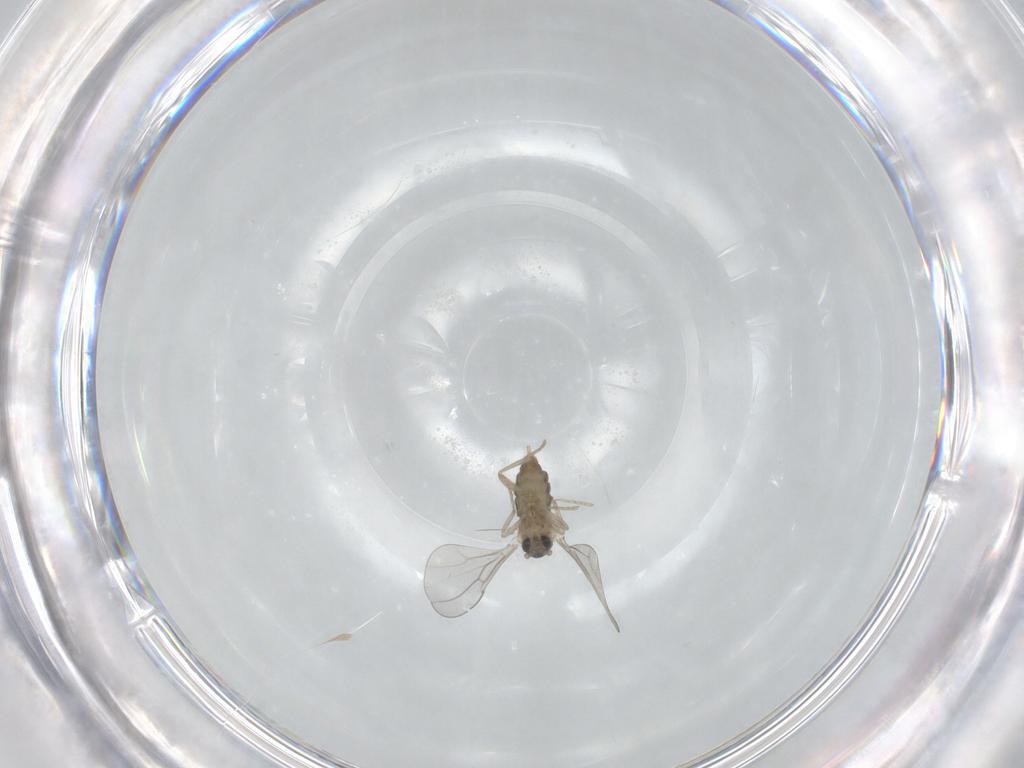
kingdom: Animalia
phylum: Arthropoda
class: Insecta
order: Diptera
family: Cecidomyiidae
